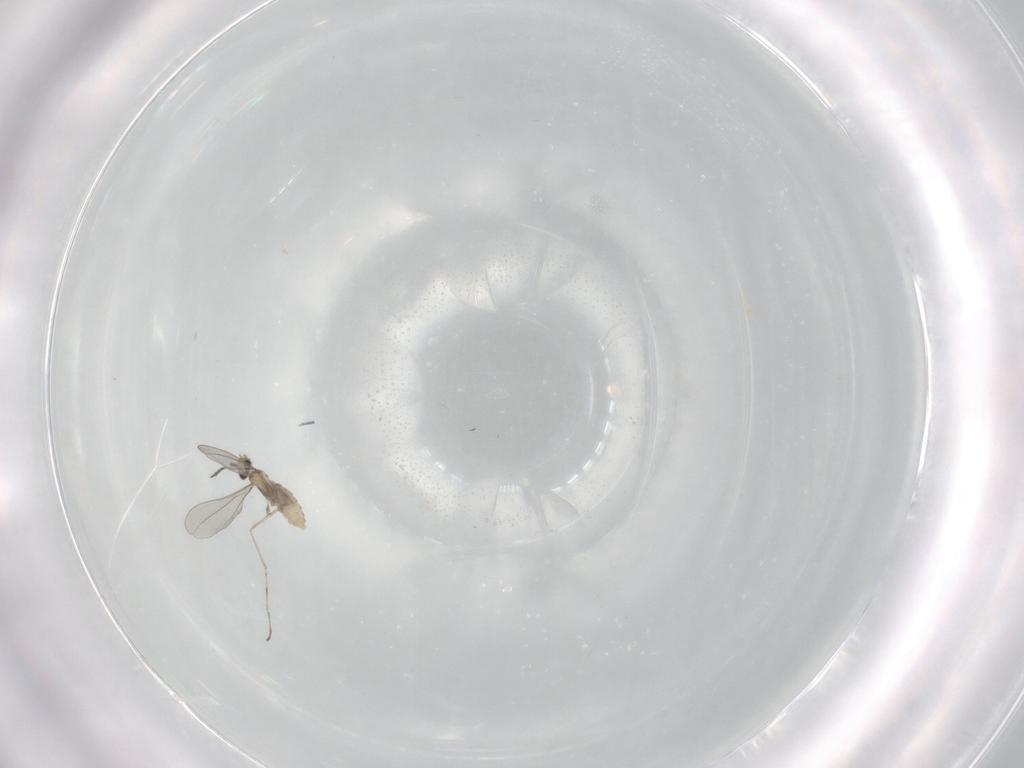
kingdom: Animalia
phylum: Arthropoda
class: Insecta
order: Diptera
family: Cecidomyiidae
